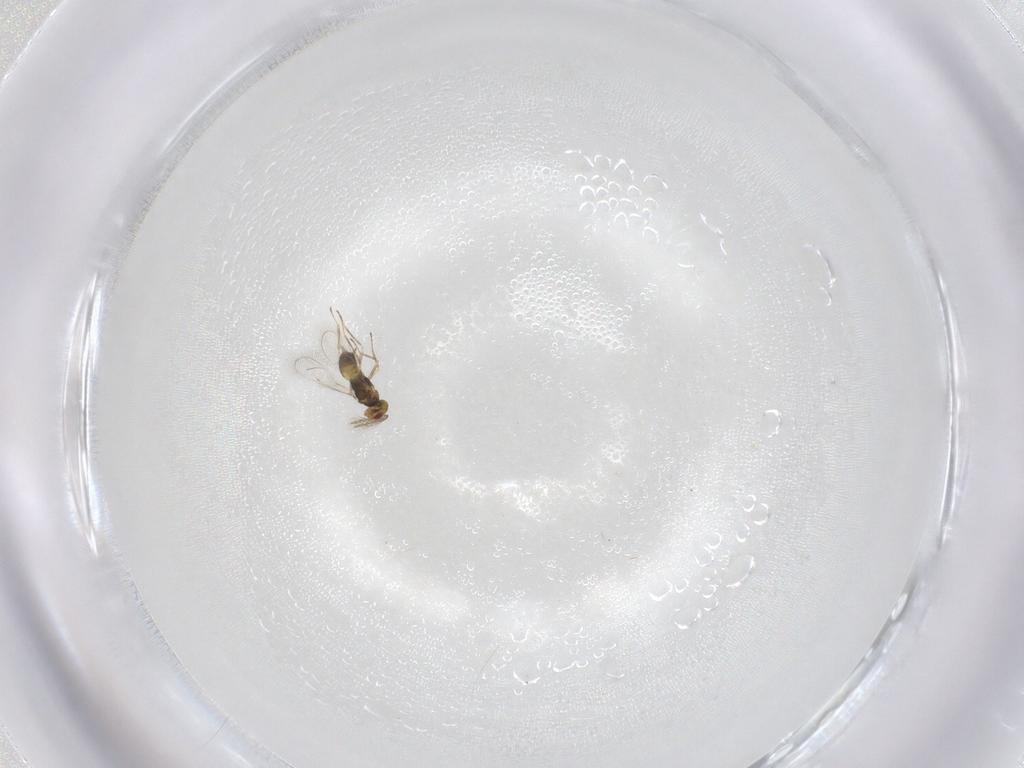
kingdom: Animalia
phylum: Arthropoda
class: Insecta
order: Hymenoptera
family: Eulophidae
